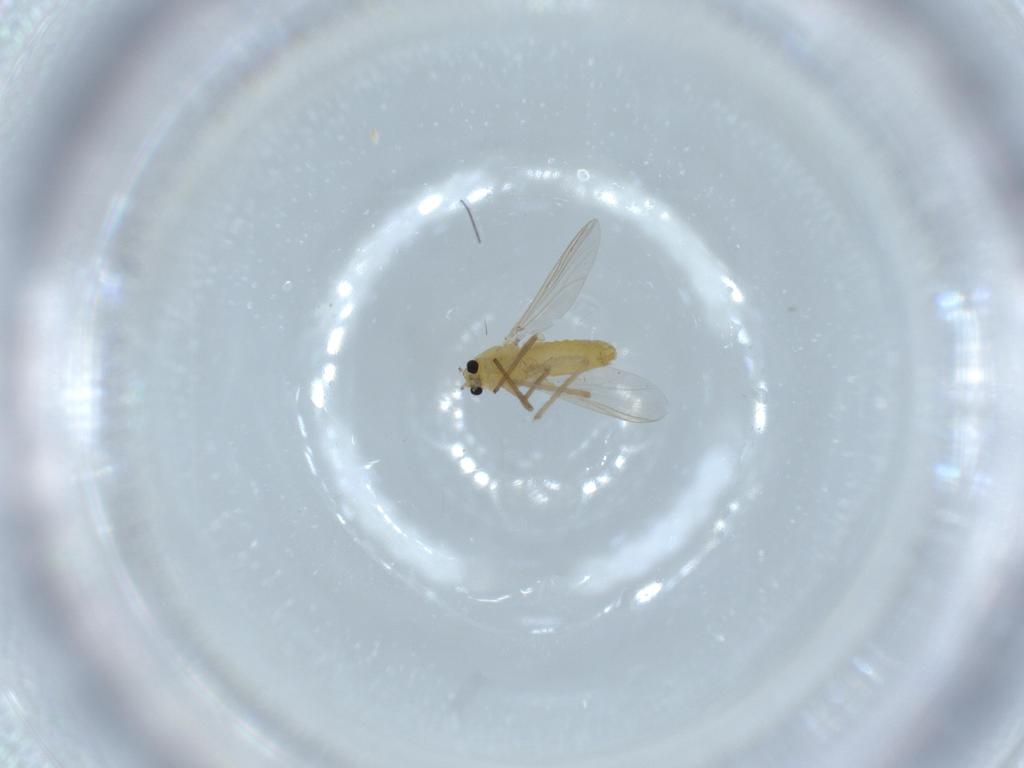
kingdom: Animalia
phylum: Arthropoda
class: Insecta
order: Diptera
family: Chironomidae
